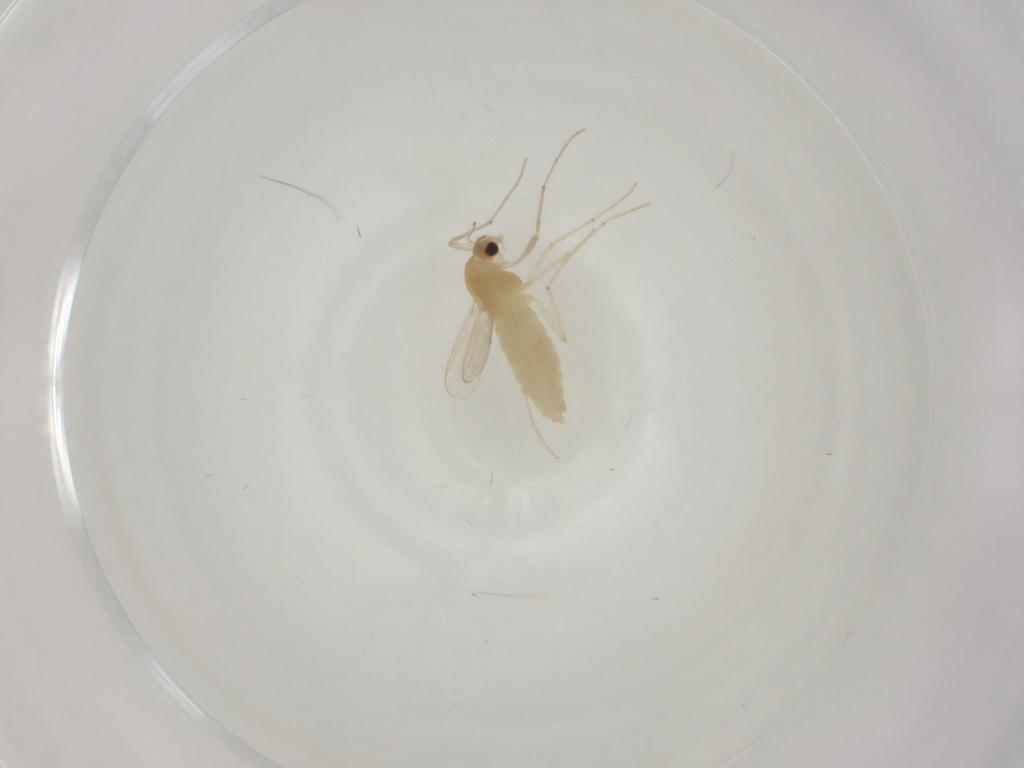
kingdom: Animalia
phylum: Arthropoda
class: Insecta
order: Diptera
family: Chironomidae
